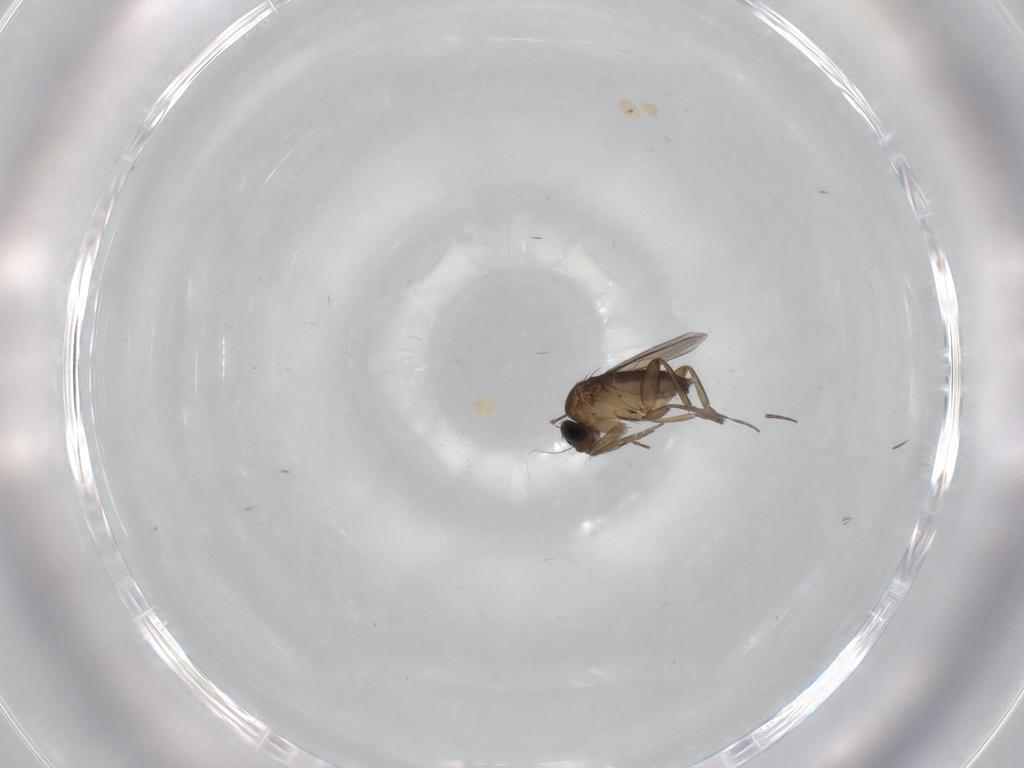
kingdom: Animalia
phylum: Arthropoda
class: Insecta
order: Diptera
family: Phoridae
